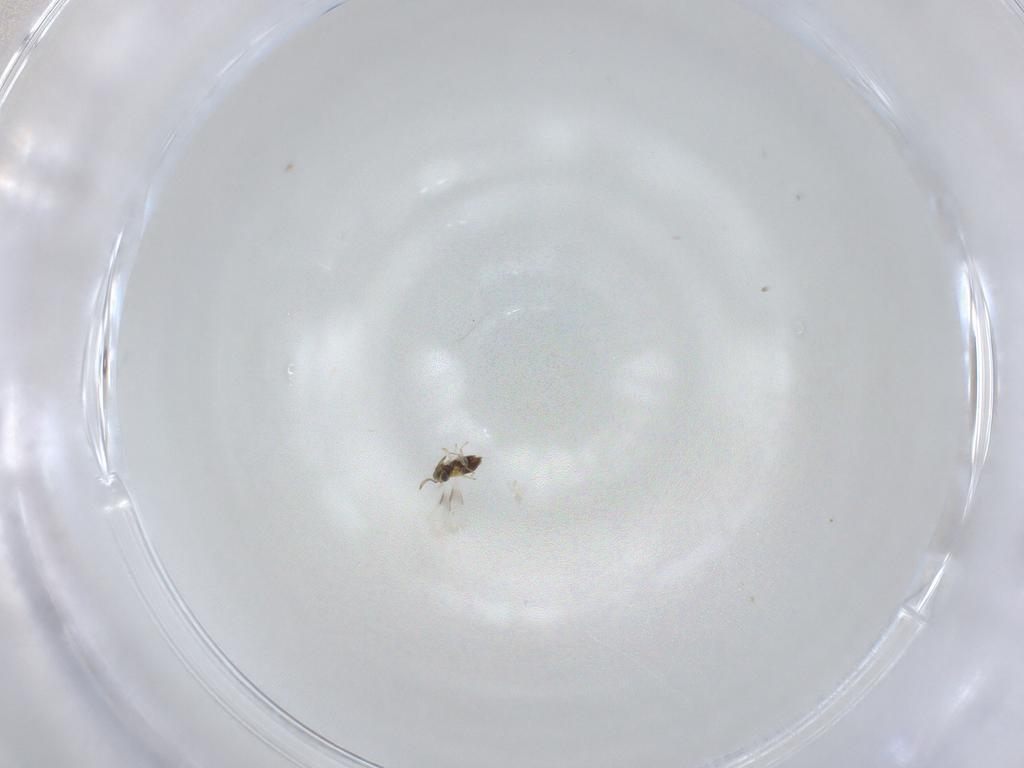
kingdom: Animalia
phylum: Arthropoda
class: Insecta
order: Hymenoptera
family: Aphelinidae
